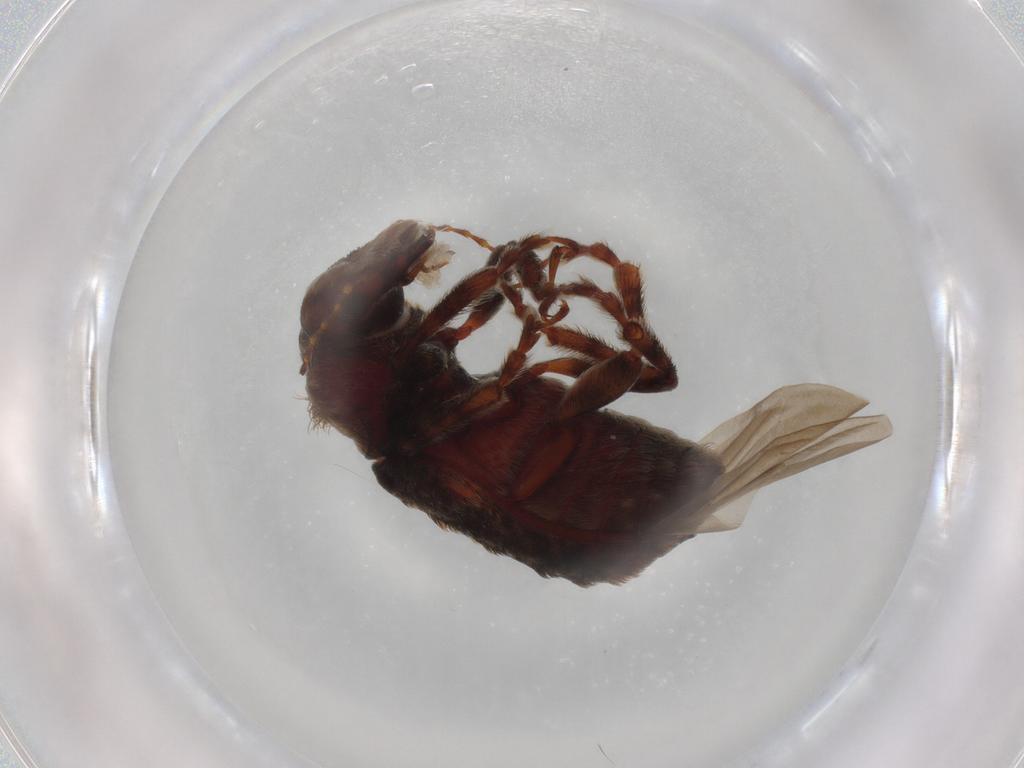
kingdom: Animalia
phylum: Arthropoda
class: Insecta
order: Coleoptera
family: Anthribidae
